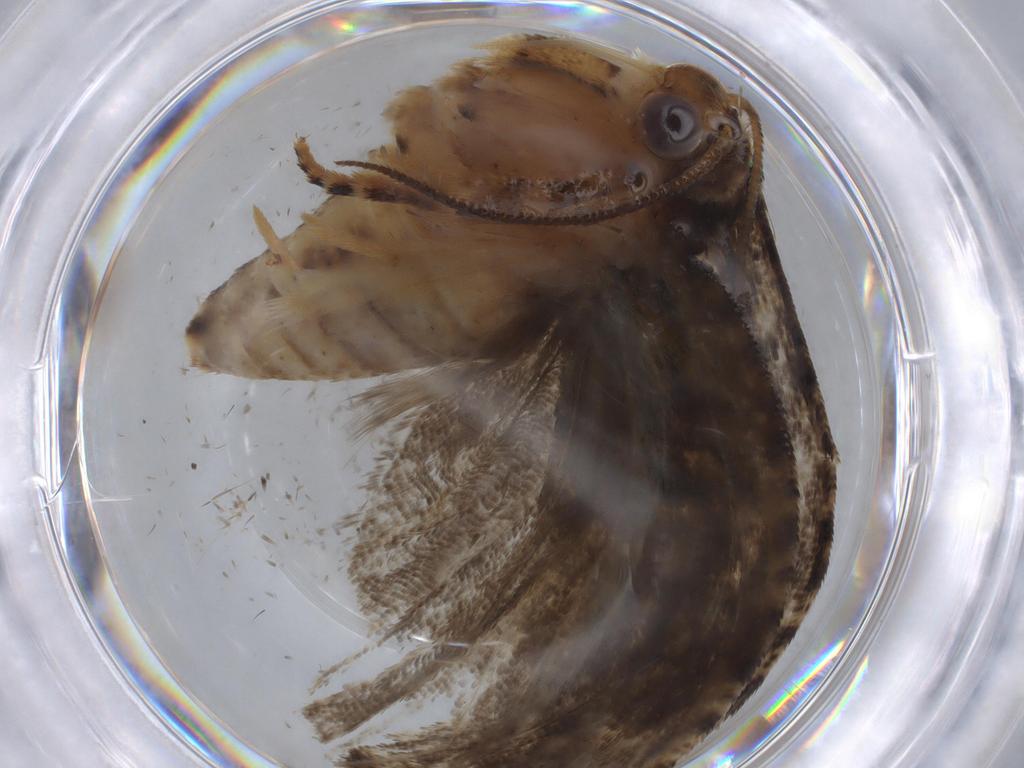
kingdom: Animalia
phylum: Arthropoda
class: Insecta
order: Lepidoptera
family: Tortricidae
